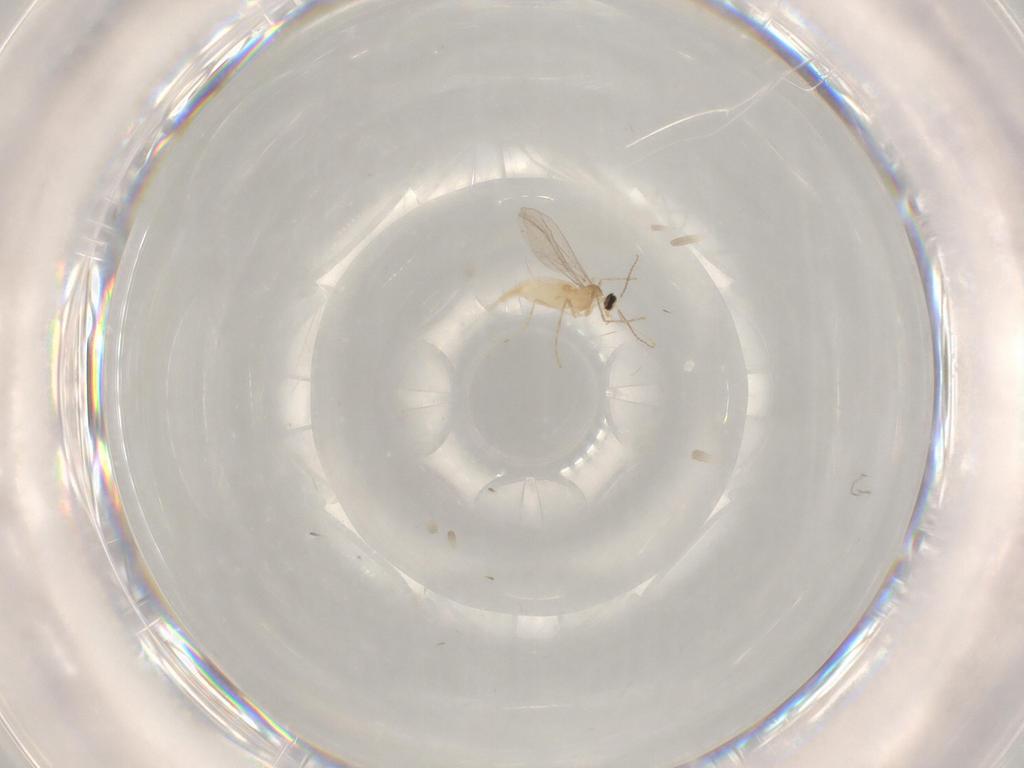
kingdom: Animalia
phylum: Arthropoda
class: Insecta
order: Diptera
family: Cecidomyiidae
